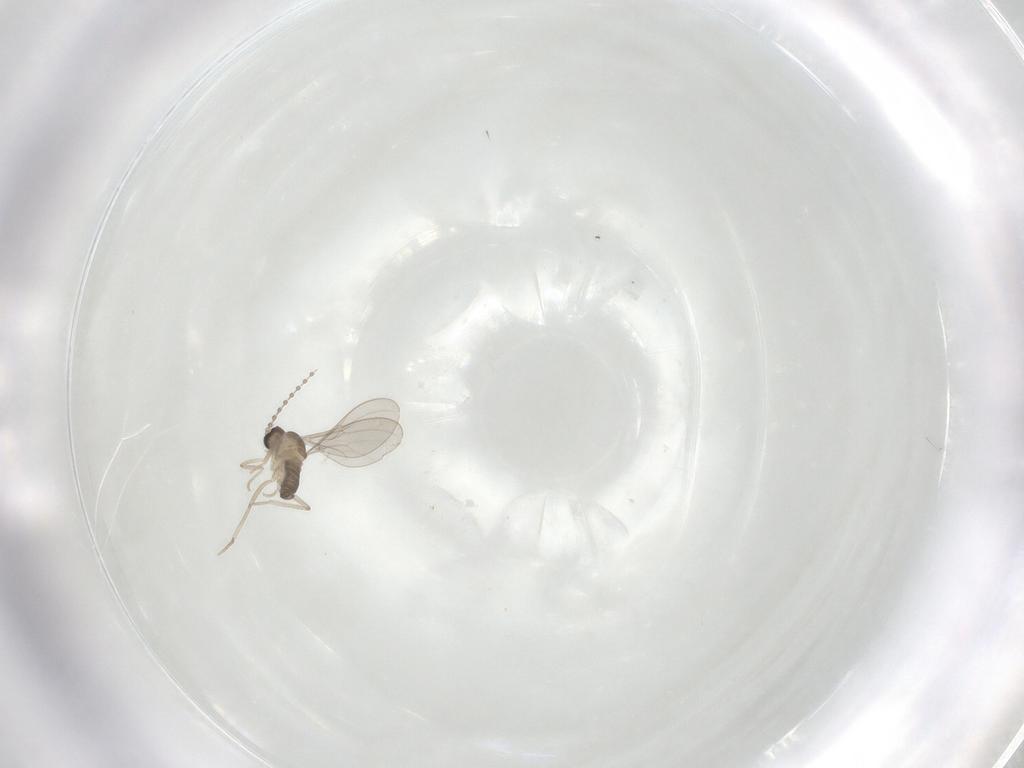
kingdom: Animalia
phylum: Arthropoda
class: Insecta
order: Diptera
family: Cecidomyiidae
